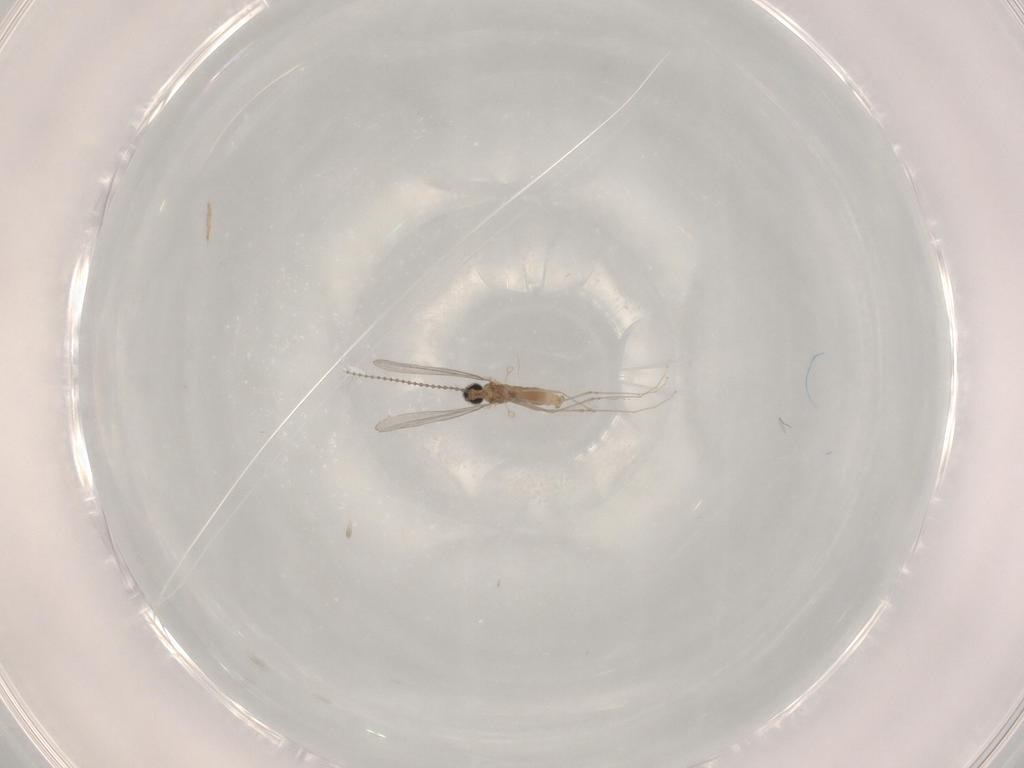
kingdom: Animalia
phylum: Arthropoda
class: Insecta
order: Diptera
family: Cecidomyiidae
